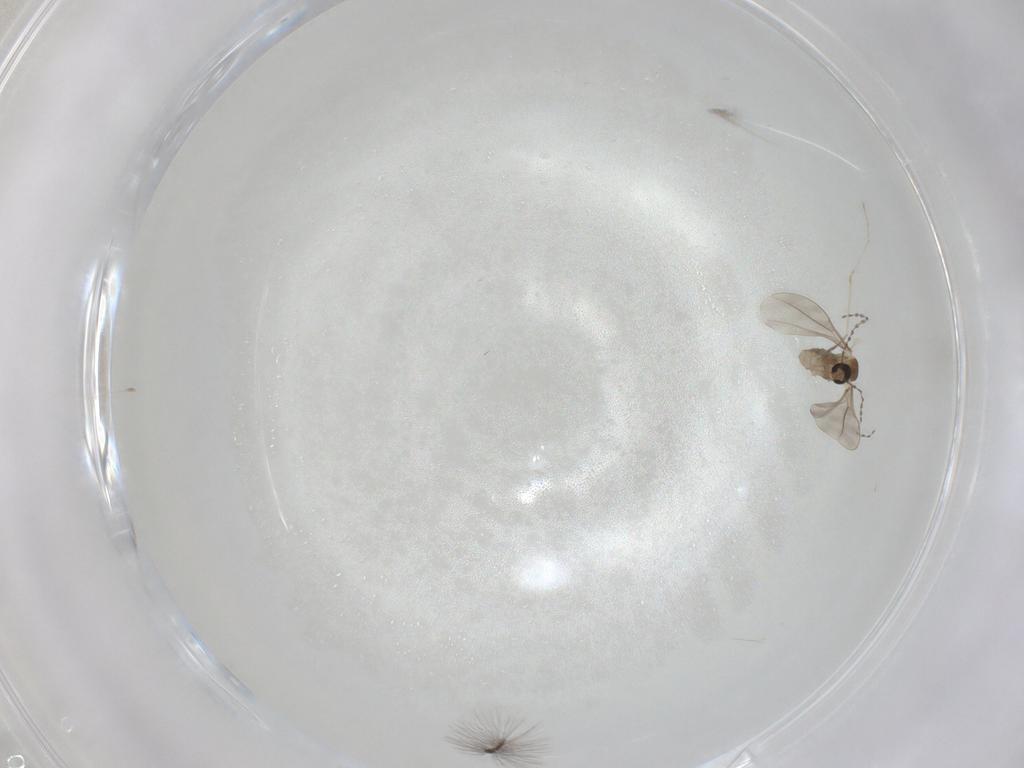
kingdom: Animalia
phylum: Arthropoda
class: Insecta
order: Diptera
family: Cecidomyiidae
